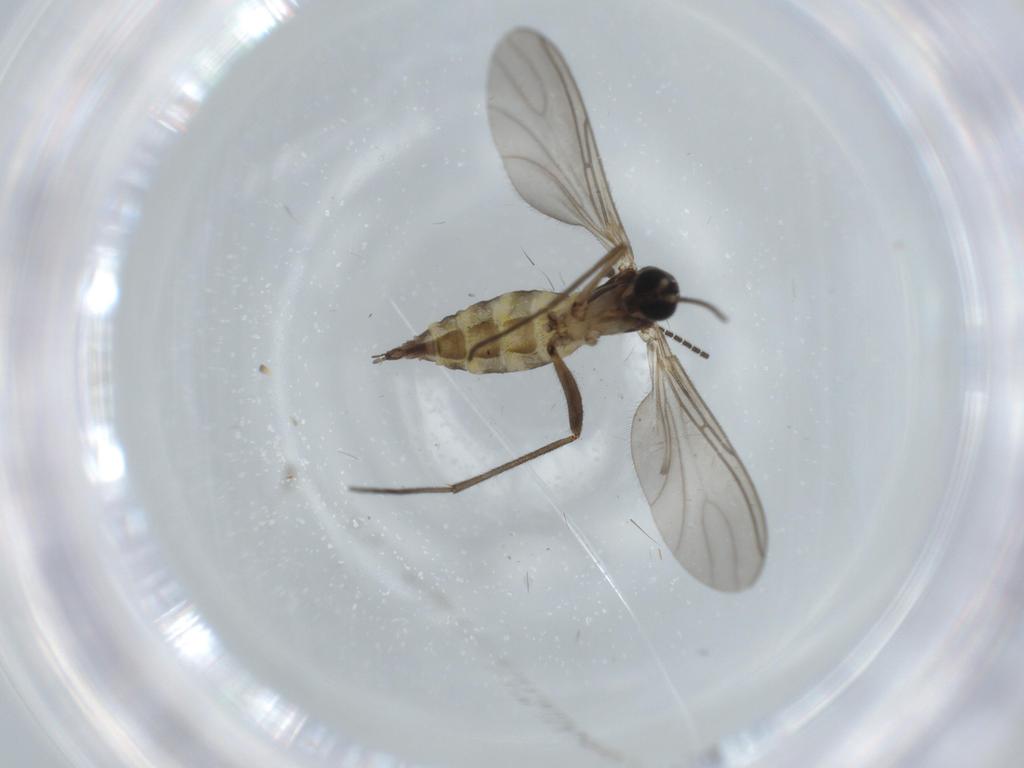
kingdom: Animalia
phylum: Arthropoda
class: Insecta
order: Diptera
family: Sciaridae
